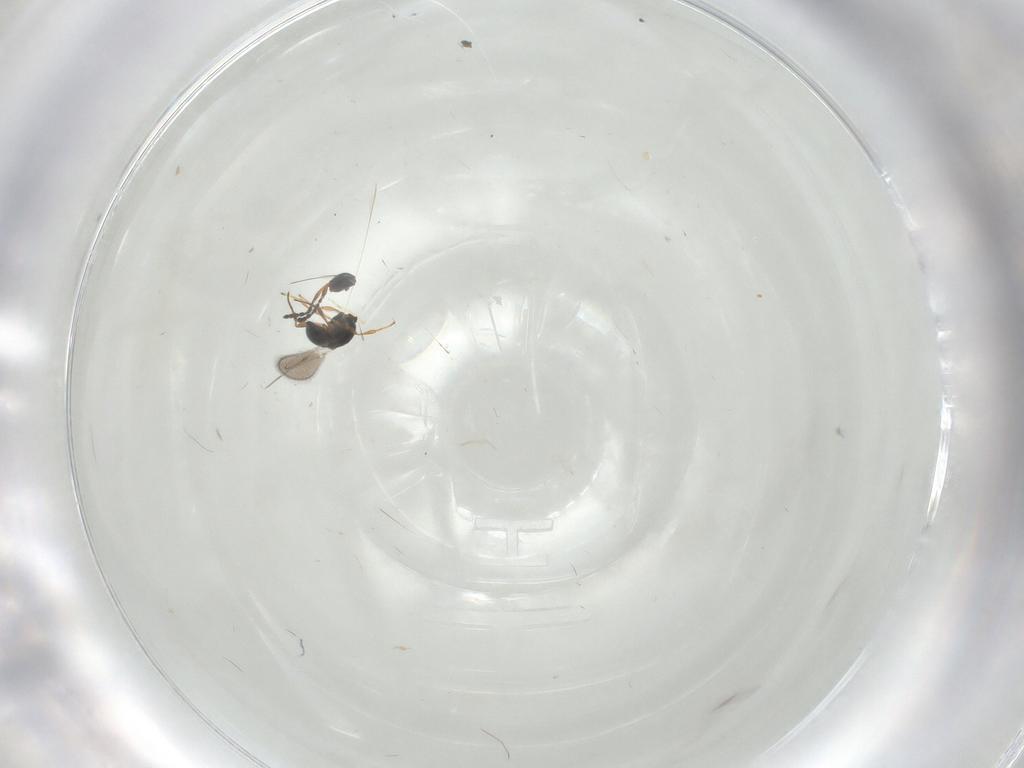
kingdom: Animalia
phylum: Arthropoda
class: Insecta
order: Hymenoptera
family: Platygastridae
